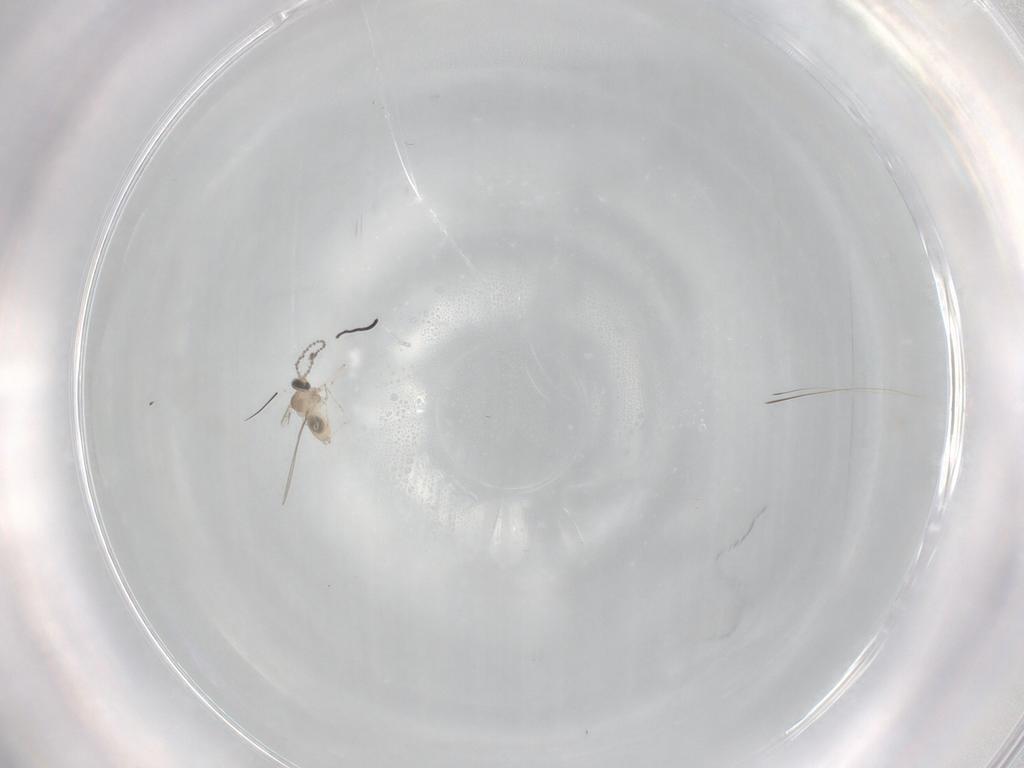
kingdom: Animalia
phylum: Arthropoda
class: Insecta
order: Diptera
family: Cecidomyiidae
